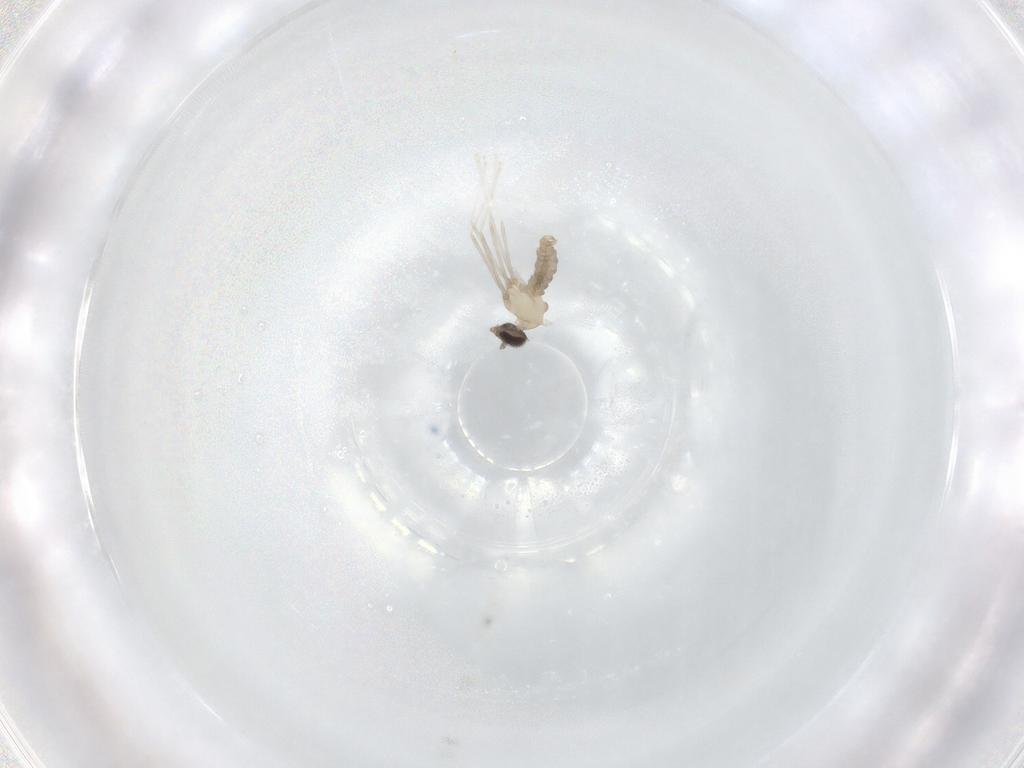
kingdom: Animalia
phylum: Arthropoda
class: Insecta
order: Diptera
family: Cecidomyiidae
